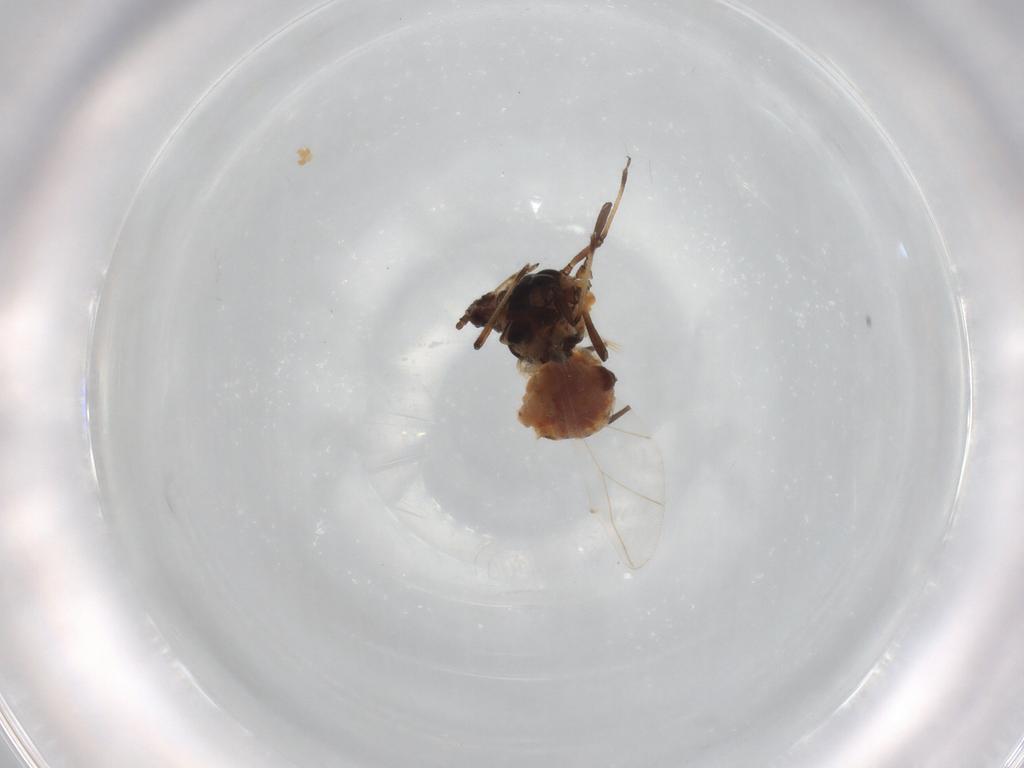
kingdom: Animalia
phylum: Arthropoda
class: Insecta
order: Hemiptera
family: Aphididae
